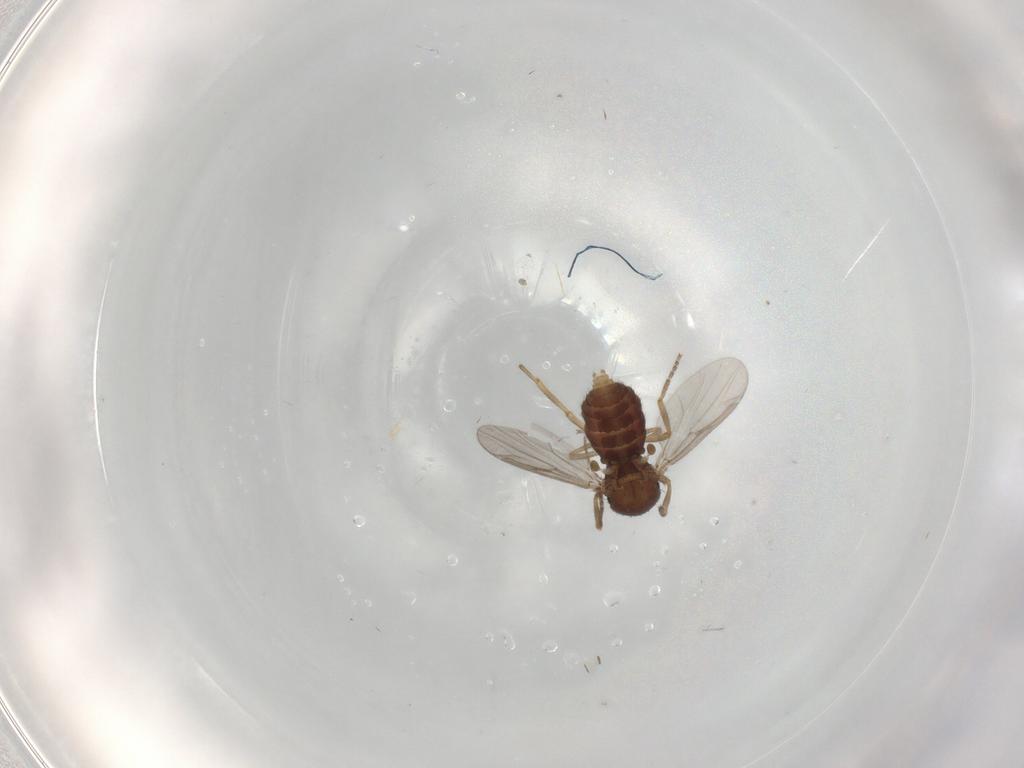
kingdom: Animalia
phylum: Arthropoda
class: Insecta
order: Diptera
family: Ceratopogonidae
